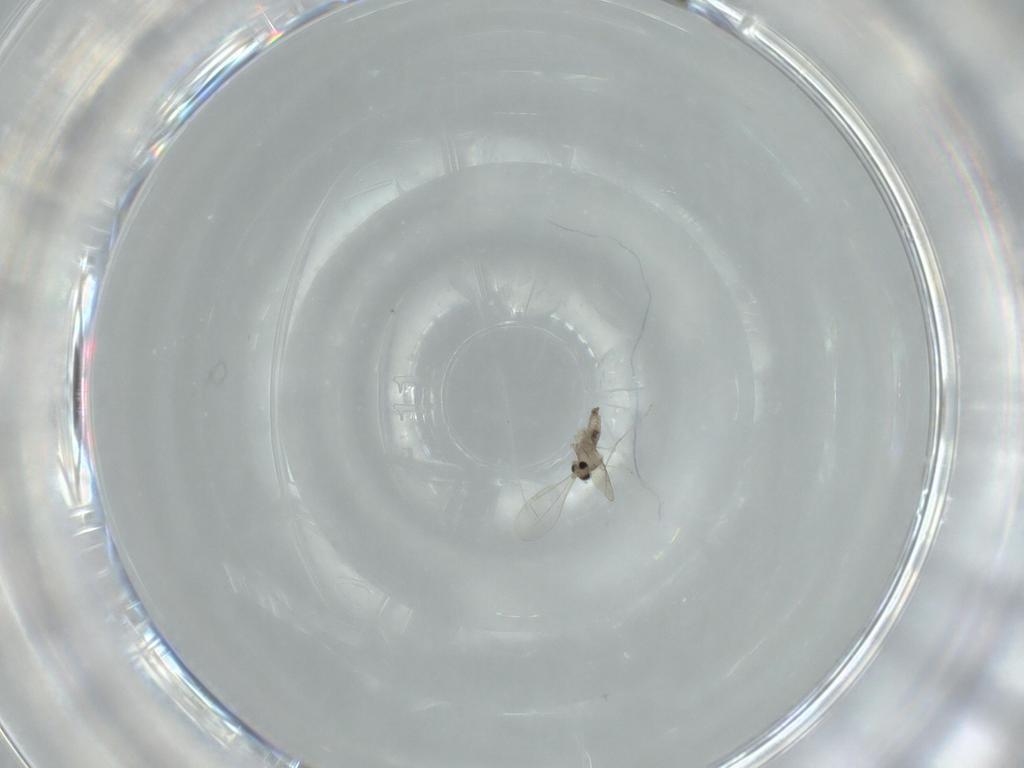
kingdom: Animalia
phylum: Arthropoda
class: Insecta
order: Diptera
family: Cecidomyiidae
